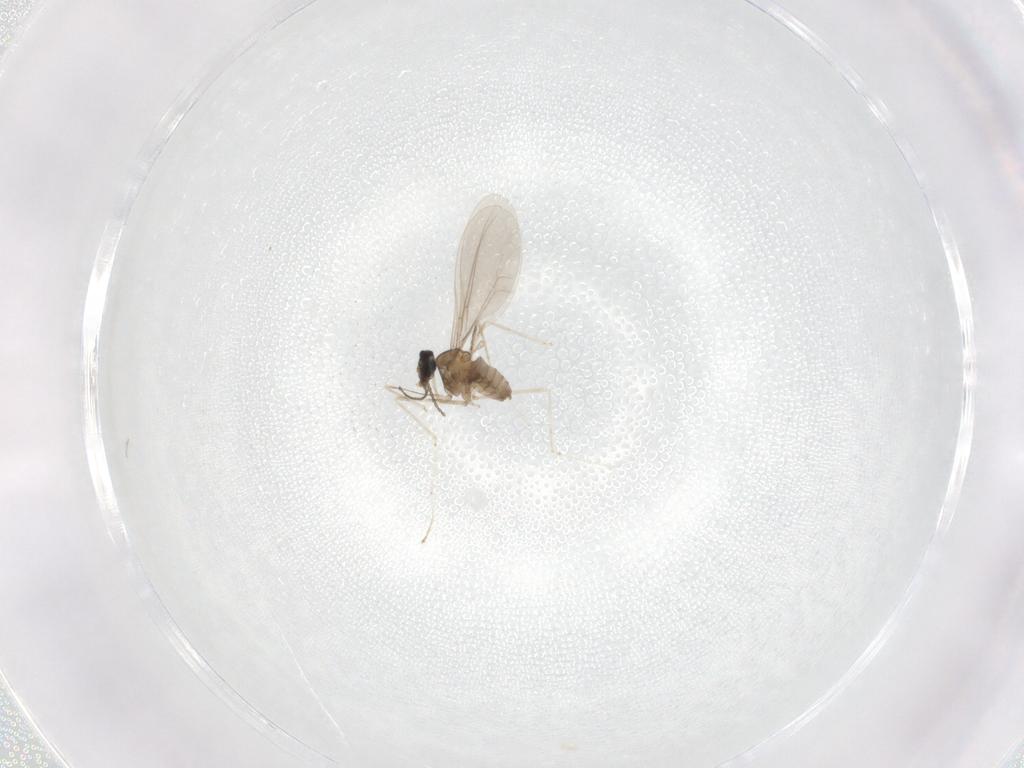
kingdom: Animalia
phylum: Arthropoda
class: Insecta
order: Diptera
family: Cecidomyiidae
